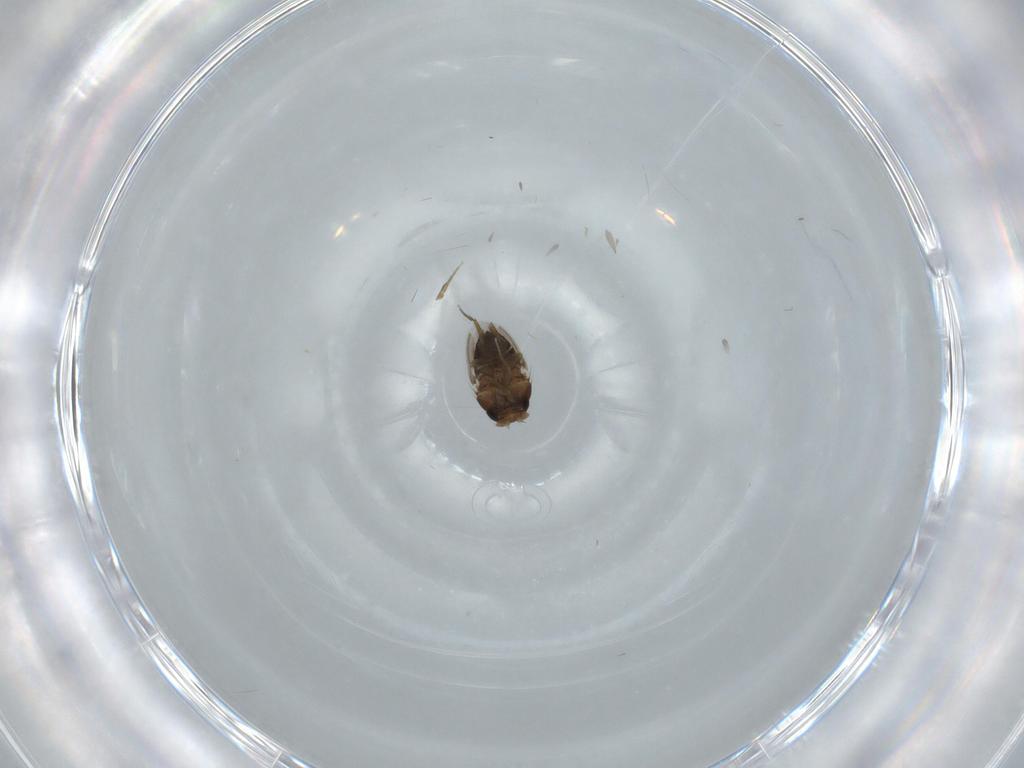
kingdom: Animalia
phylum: Arthropoda
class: Insecta
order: Diptera
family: Phoridae
